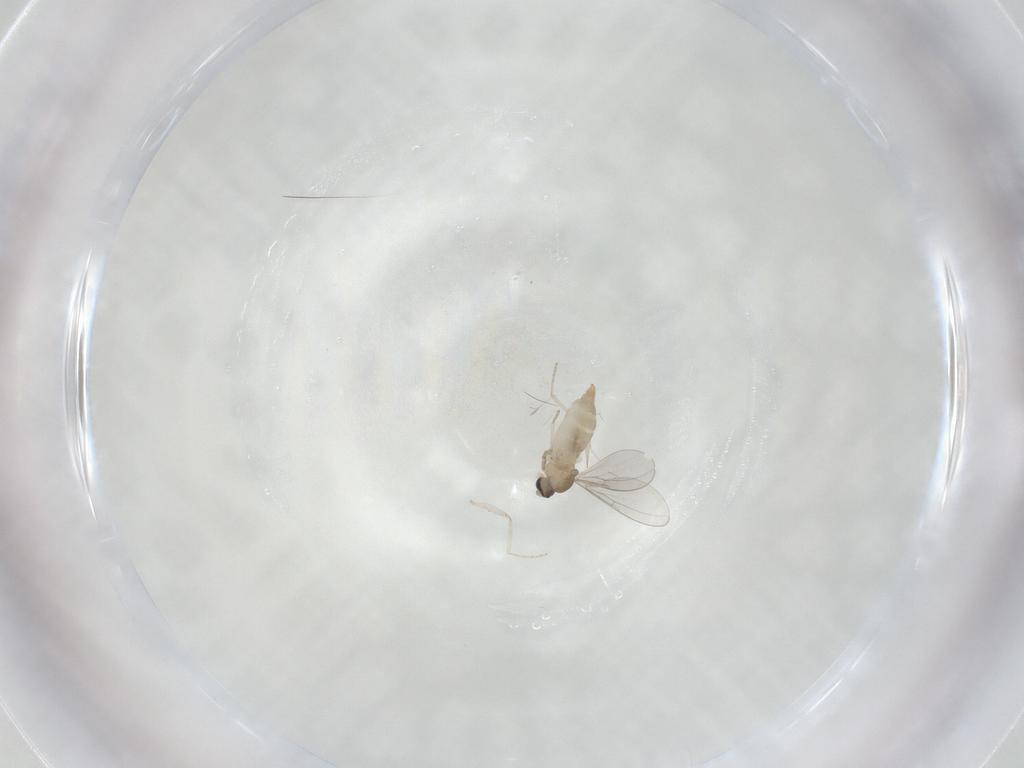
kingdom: Animalia
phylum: Arthropoda
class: Insecta
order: Diptera
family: Cecidomyiidae
